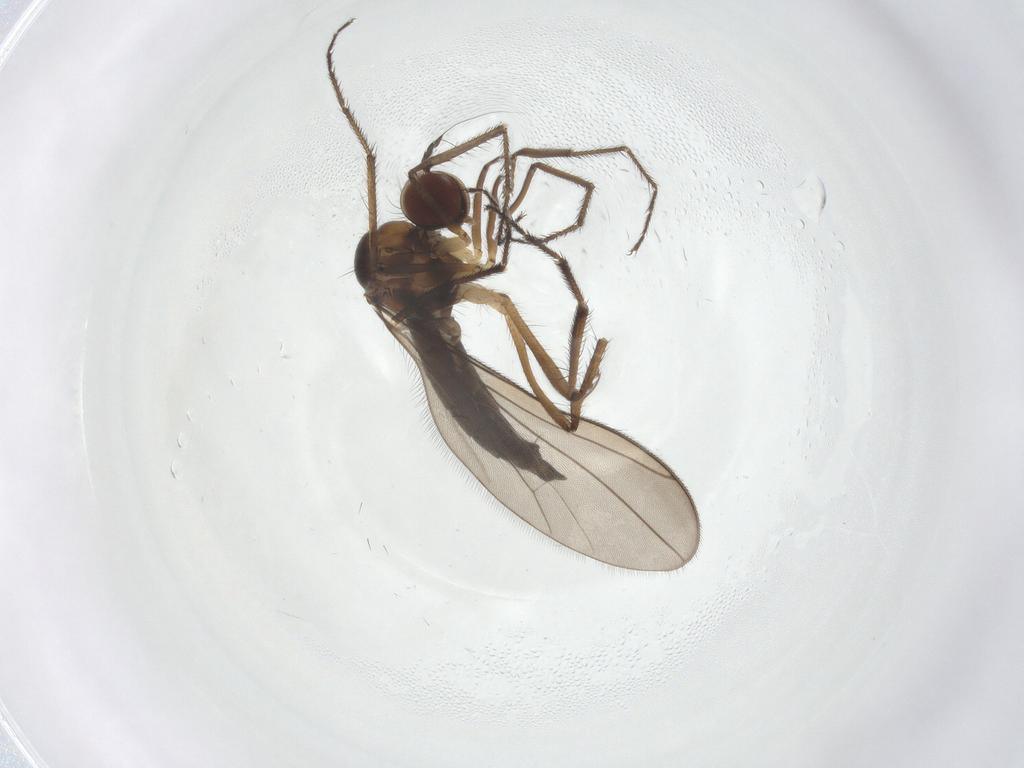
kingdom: Animalia
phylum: Arthropoda
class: Insecta
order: Diptera
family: Hybotidae
